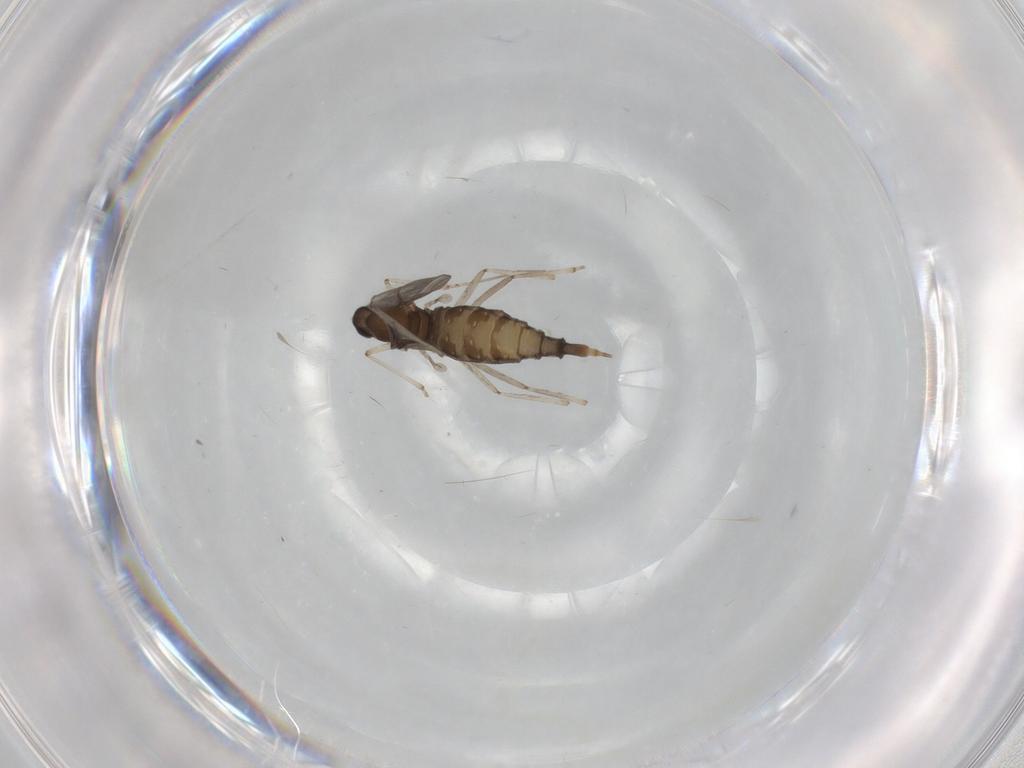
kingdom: Animalia
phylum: Arthropoda
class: Insecta
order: Diptera
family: Cecidomyiidae
